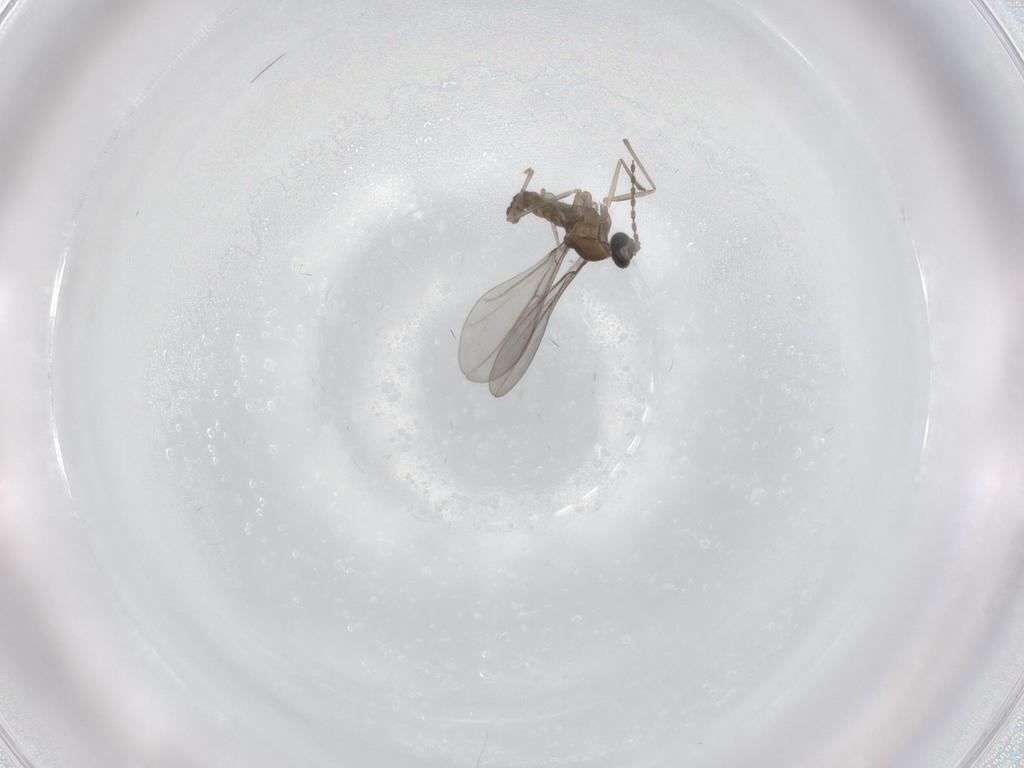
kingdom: Animalia
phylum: Arthropoda
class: Insecta
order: Diptera
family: Cecidomyiidae
